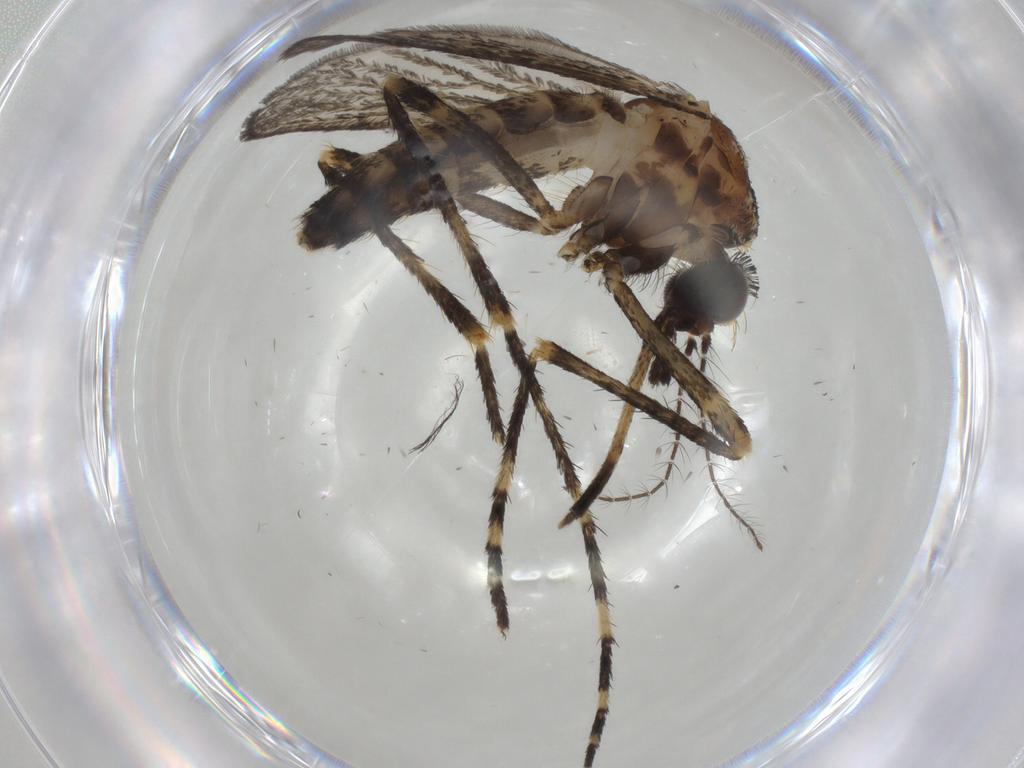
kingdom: Animalia
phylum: Arthropoda
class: Insecta
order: Diptera
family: Culicidae
